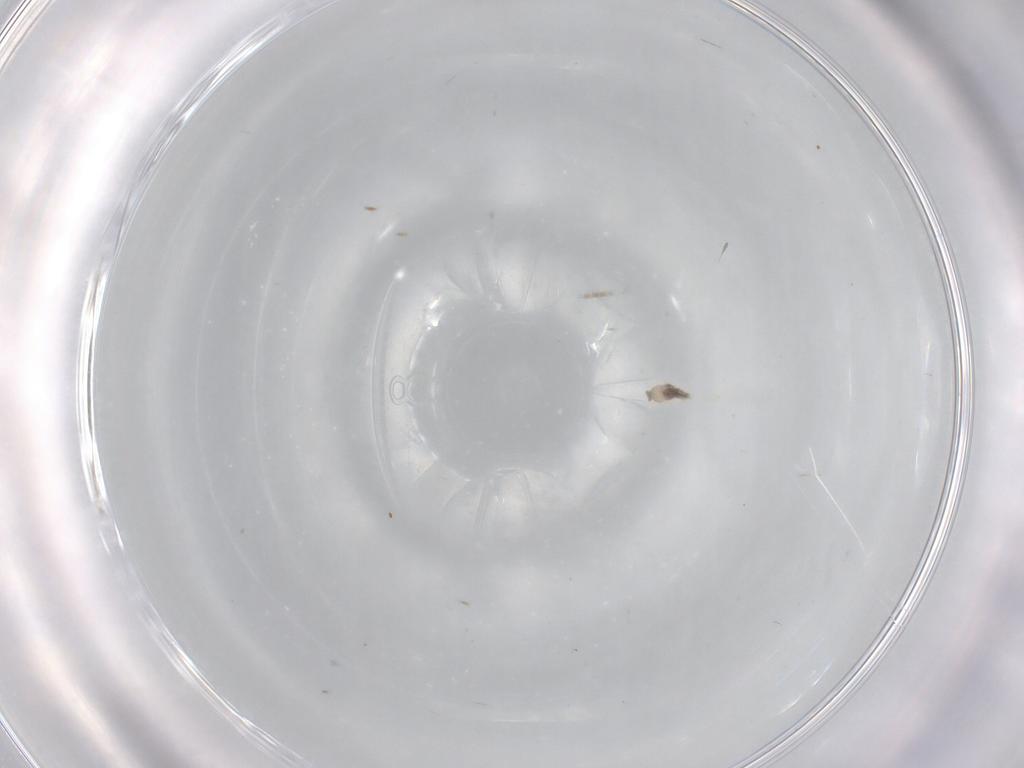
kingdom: Animalia
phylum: Arthropoda
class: Insecta
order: Diptera
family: Cecidomyiidae
